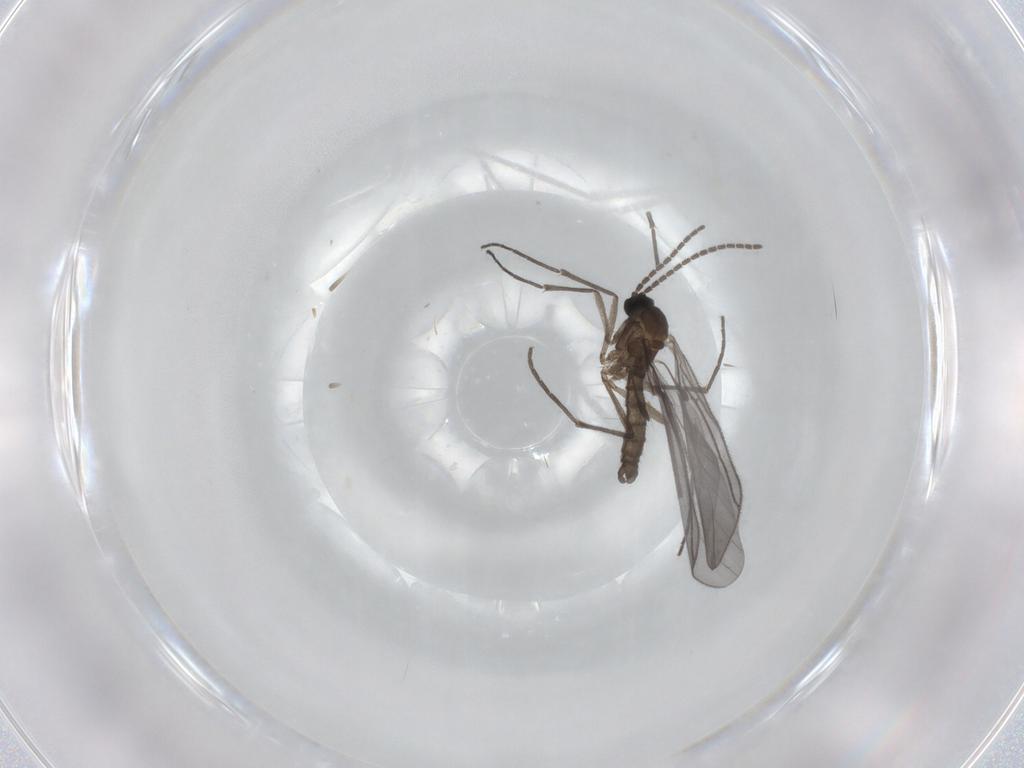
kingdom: Animalia
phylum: Arthropoda
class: Insecta
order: Diptera
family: Sciaridae
